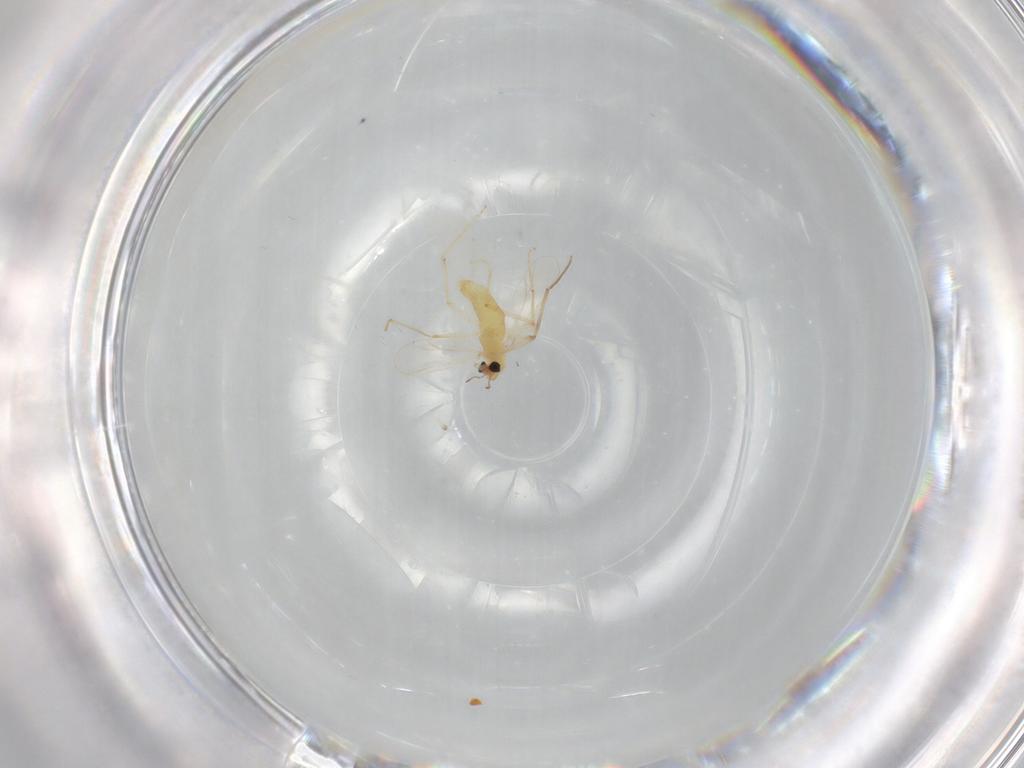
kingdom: Animalia
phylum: Arthropoda
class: Insecta
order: Diptera
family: Chironomidae
